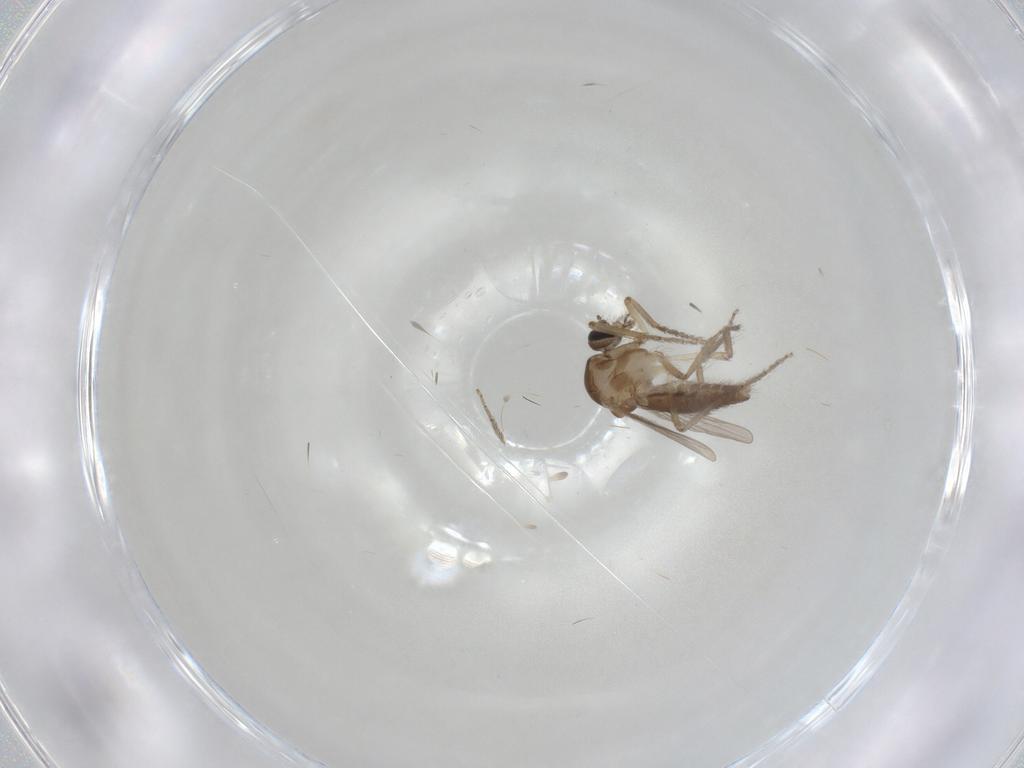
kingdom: Animalia
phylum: Arthropoda
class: Insecta
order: Diptera
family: Ceratopogonidae
